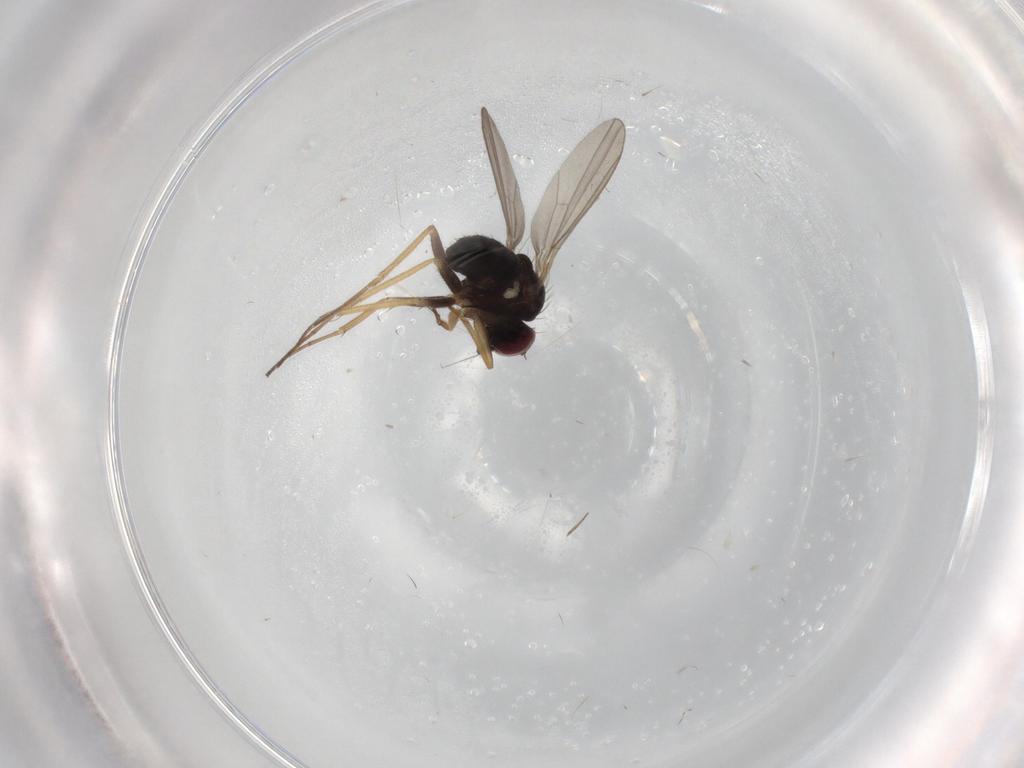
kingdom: Animalia
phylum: Arthropoda
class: Insecta
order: Diptera
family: Dolichopodidae
